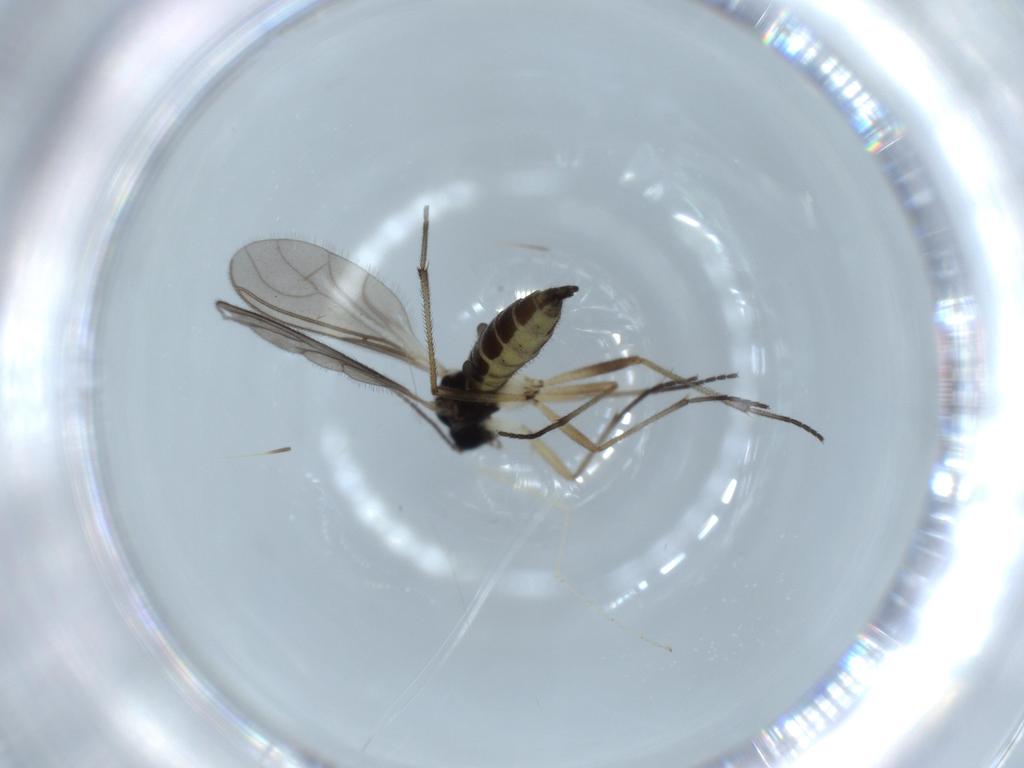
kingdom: Animalia
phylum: Arthropoda
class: Insecta
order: Diptera
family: Sciaridae
